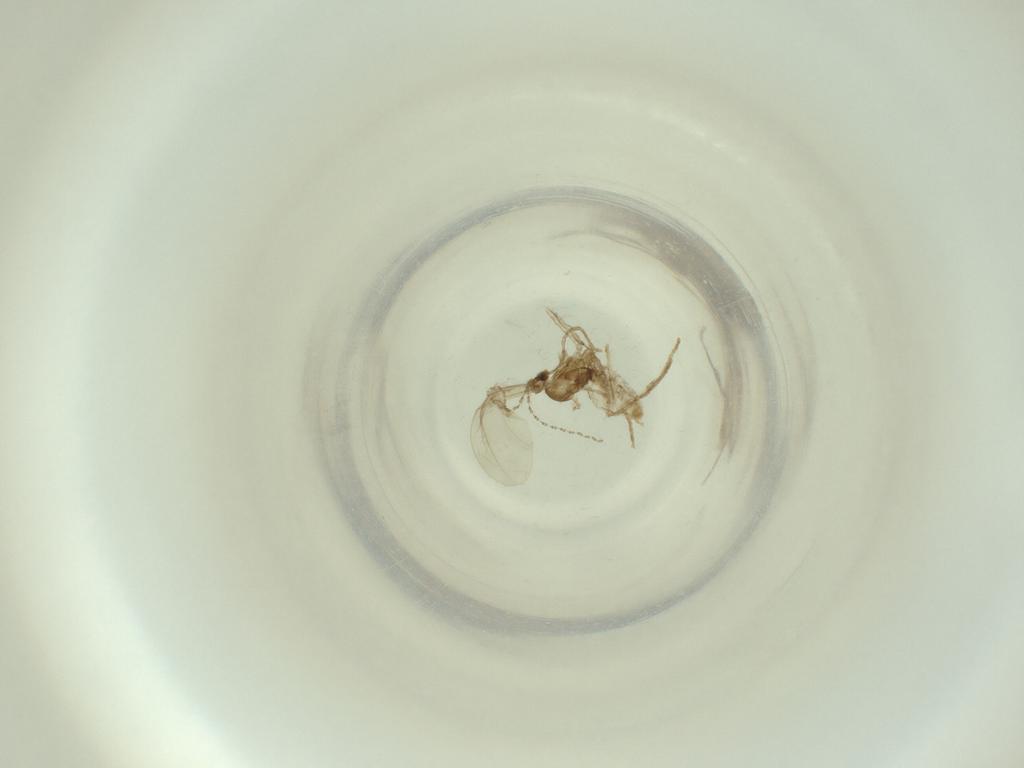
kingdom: Animalia
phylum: Arthropoda
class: Insecta
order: Diptera
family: Cecidomyiidae
